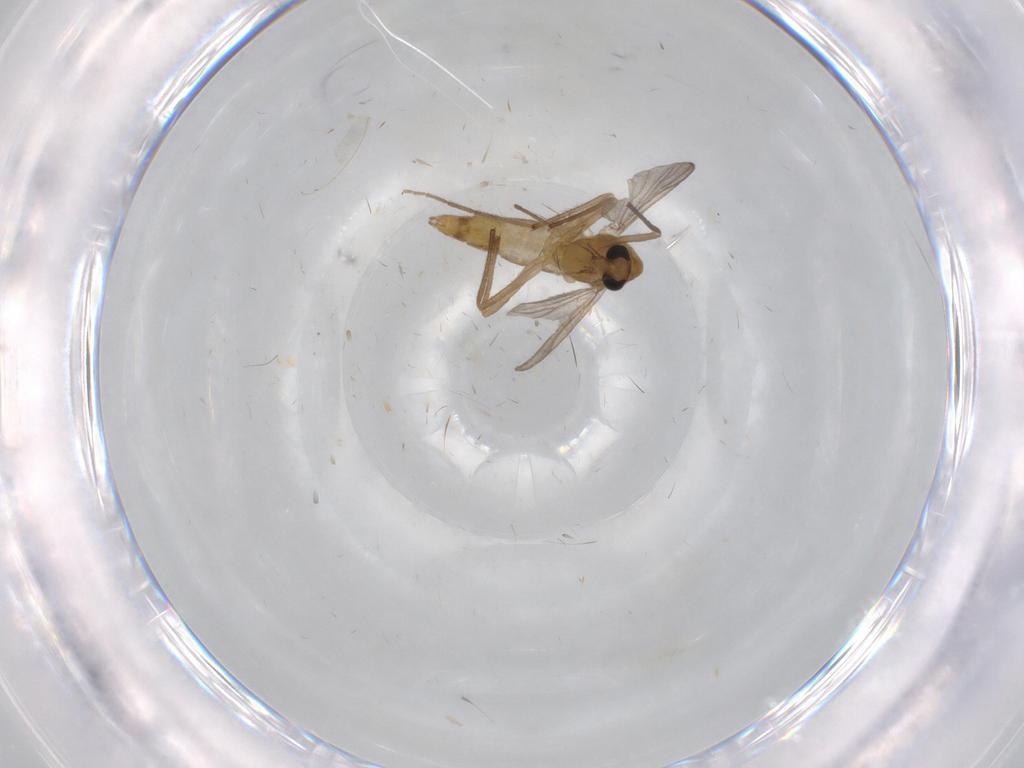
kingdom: Animalia
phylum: Arthropoda
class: Insecta
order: Diptera
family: Chironomidae
